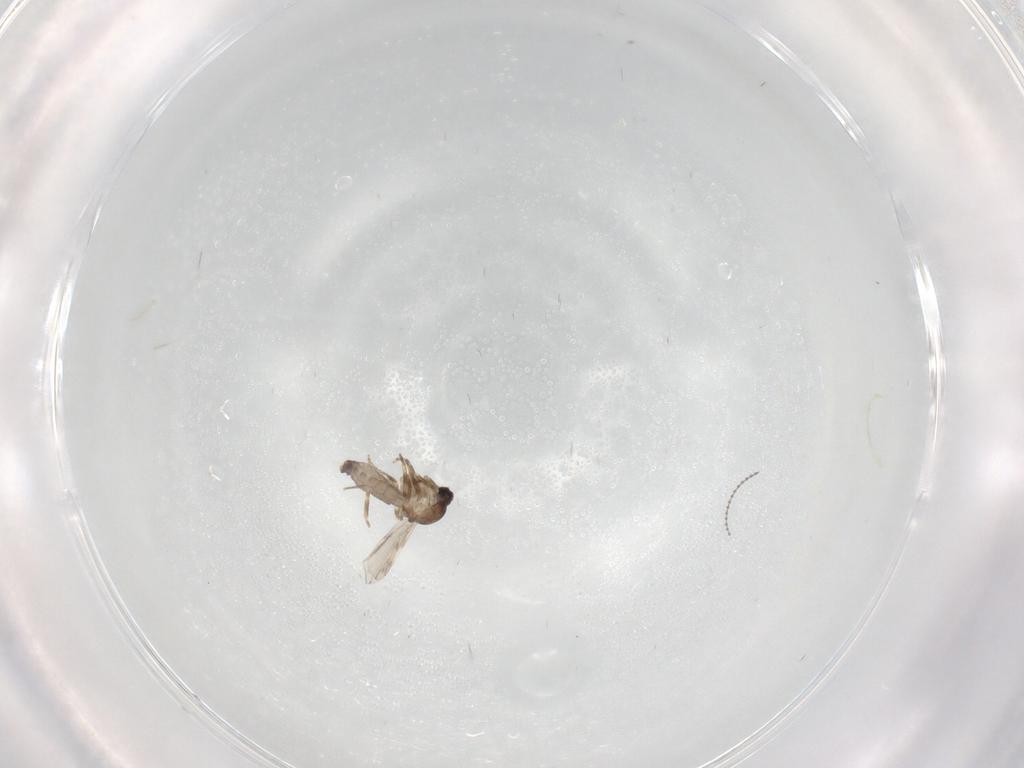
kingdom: Animalia
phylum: Arthropoda
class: Insecta
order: Diptera
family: Ceratopogonidae
